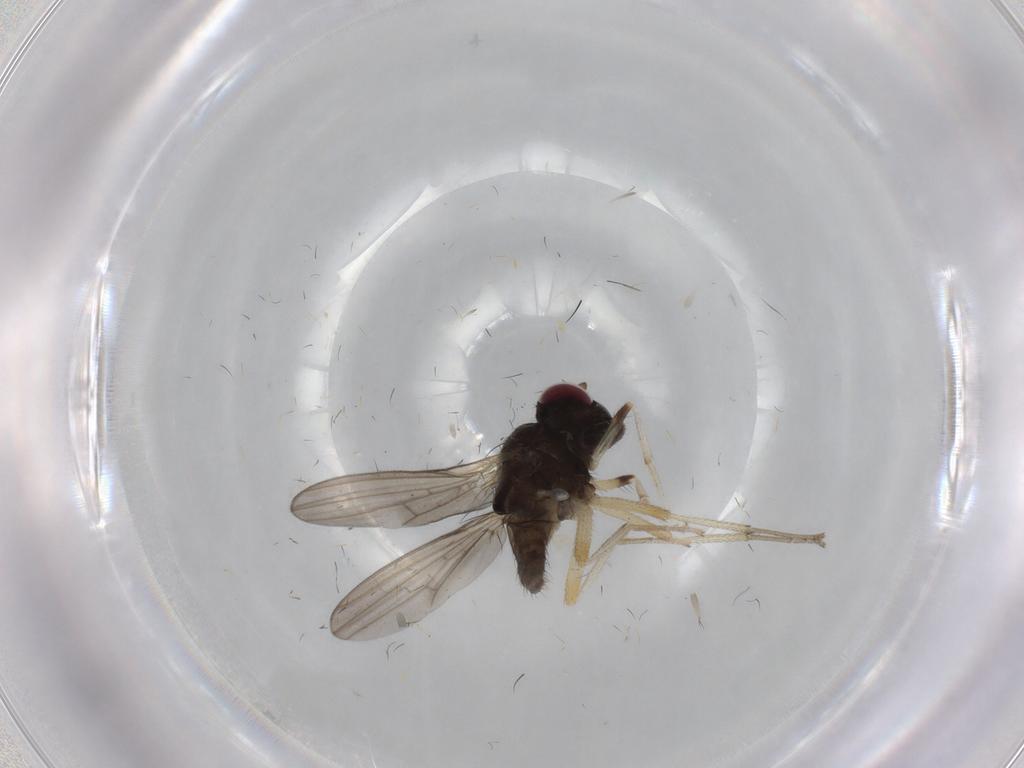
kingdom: Animalia
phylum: Arthropoda
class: Insecta
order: Diptera
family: Lauxaniidae
